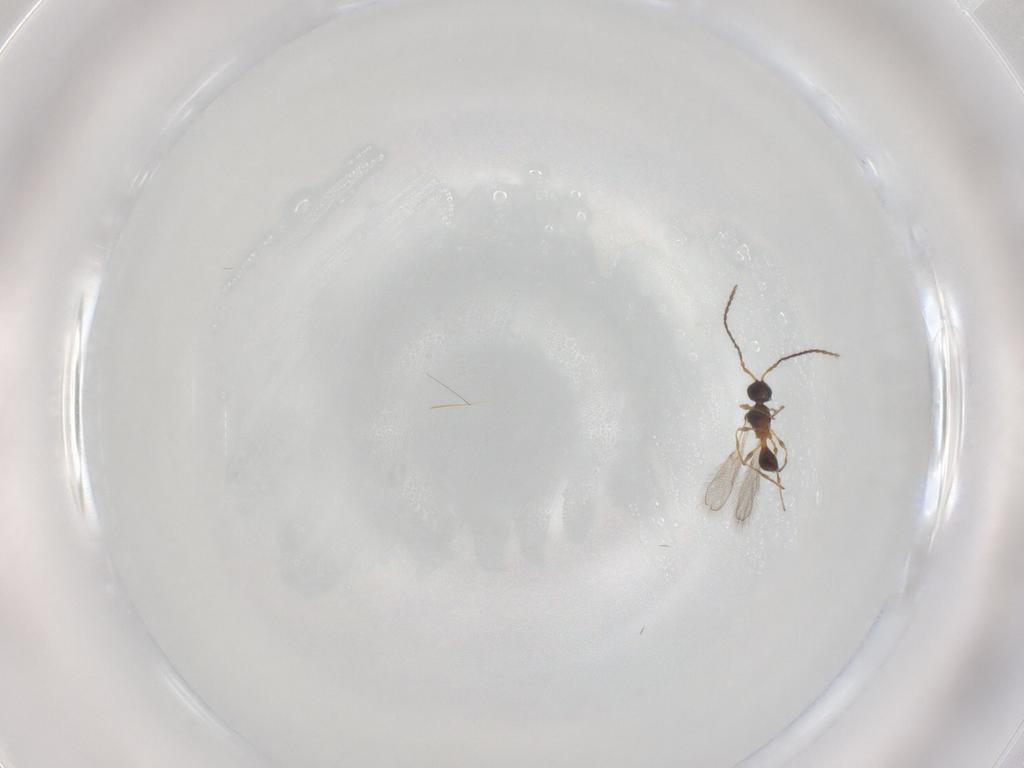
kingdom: Animalia
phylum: Arthropoda
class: Insecta
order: Hymenoptera
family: Diapriidae
